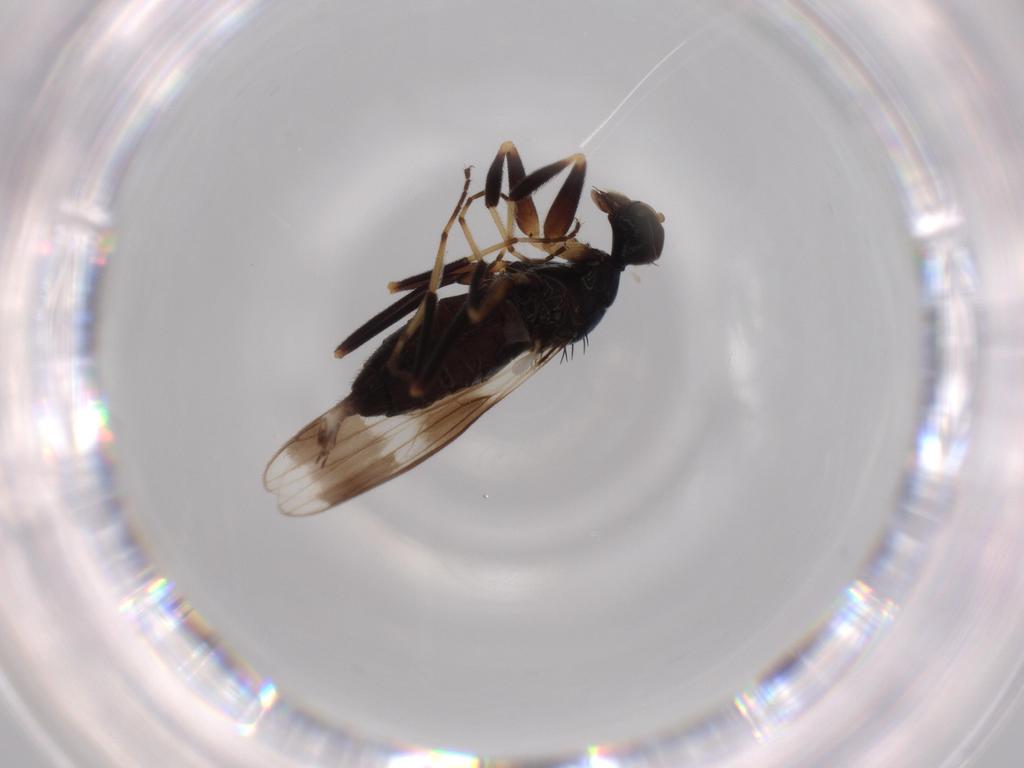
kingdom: Animalia
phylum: Arthropoda
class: Insecta
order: Diptera
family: Hybotidae
